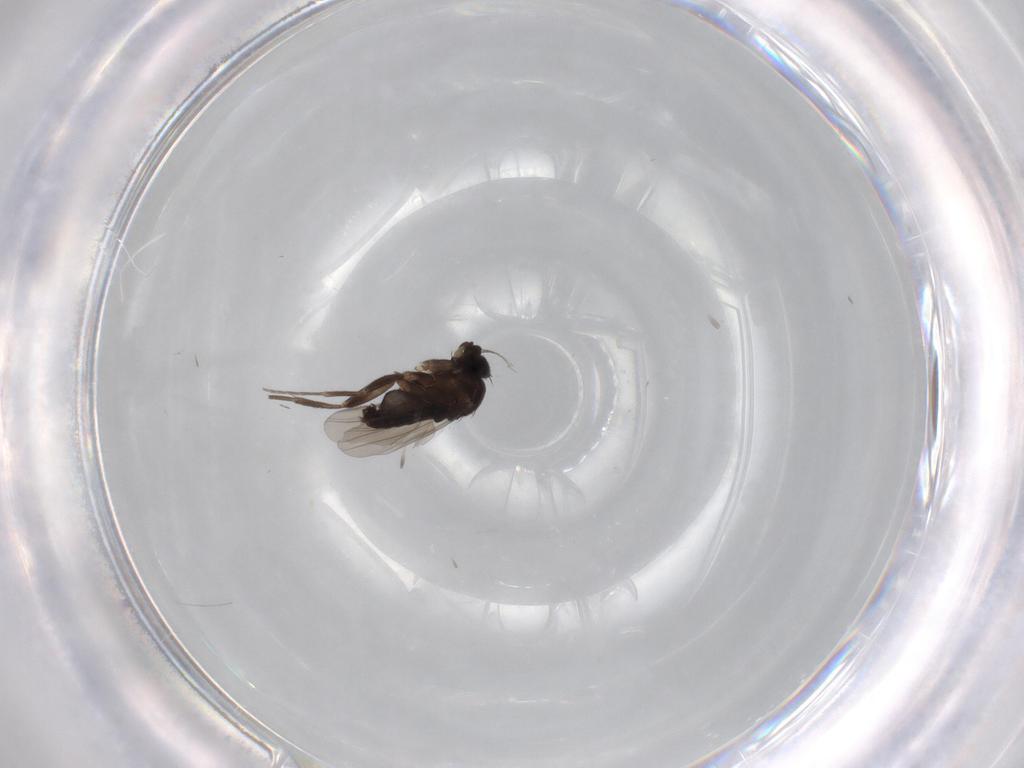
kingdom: Animalia
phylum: Arthropoda
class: Insecta
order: Diptera
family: Phoridae
